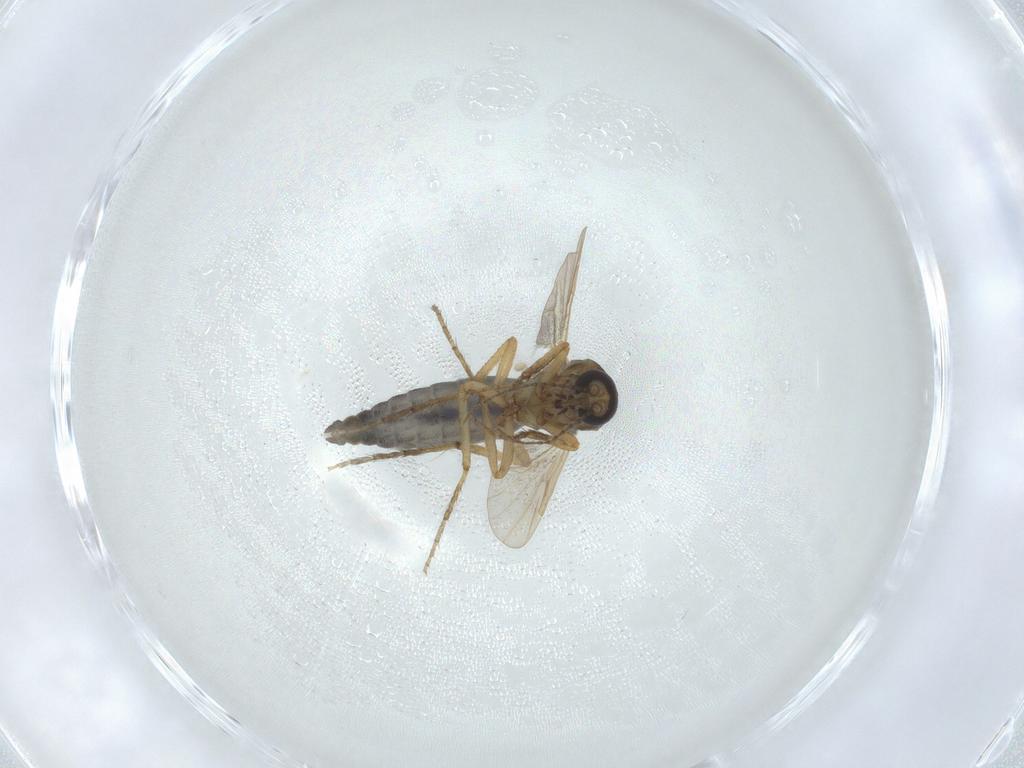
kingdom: Animalia
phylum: Arthropoda
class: Insecta
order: Diptera
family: Ceratopogonidae
